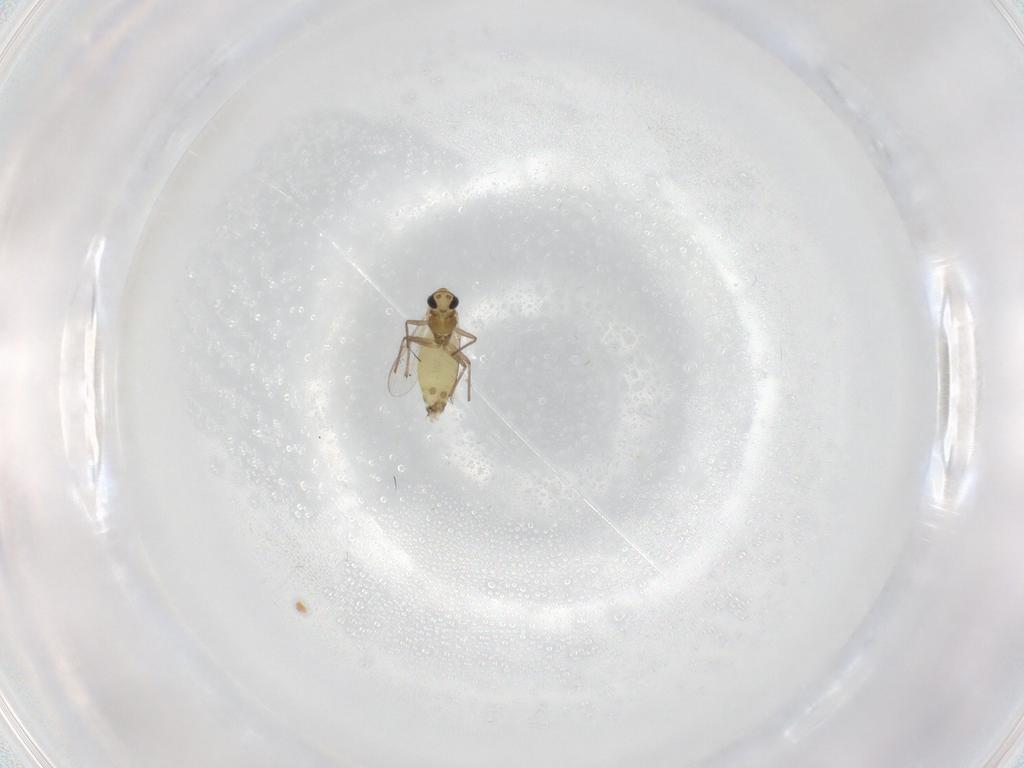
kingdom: Animalia
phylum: Arthropoda
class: Insecta
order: Diptera
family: Chironomidae
